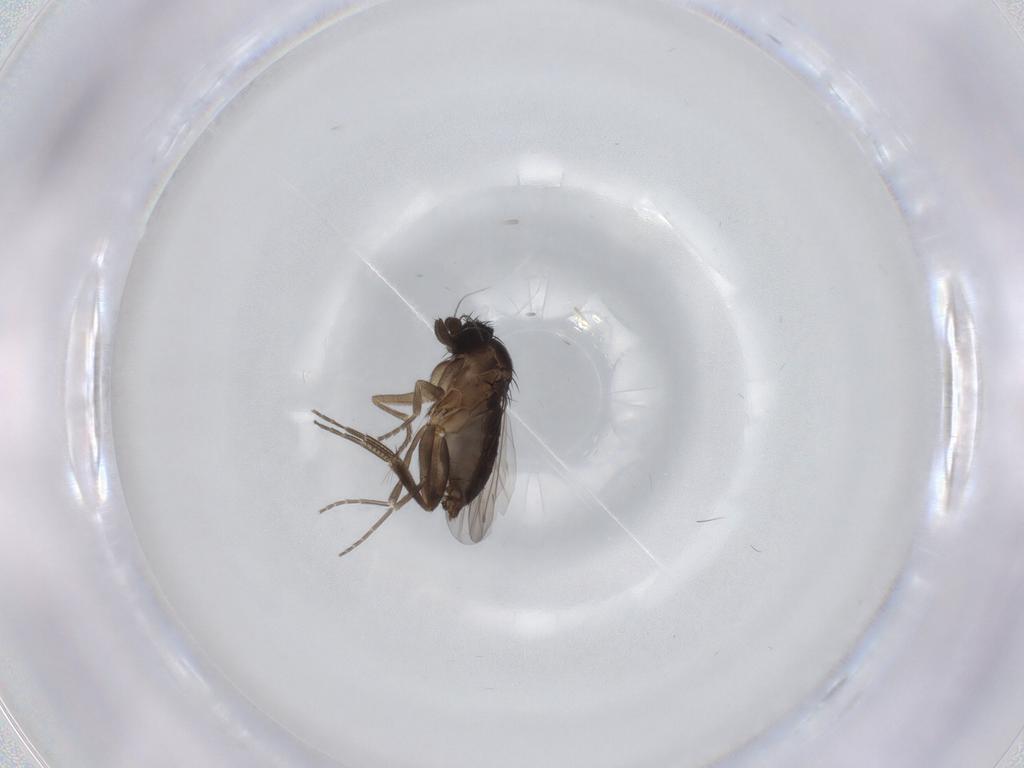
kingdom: Animalia
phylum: Arthropoda
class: Insecta
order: Diptera
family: Phoridae
